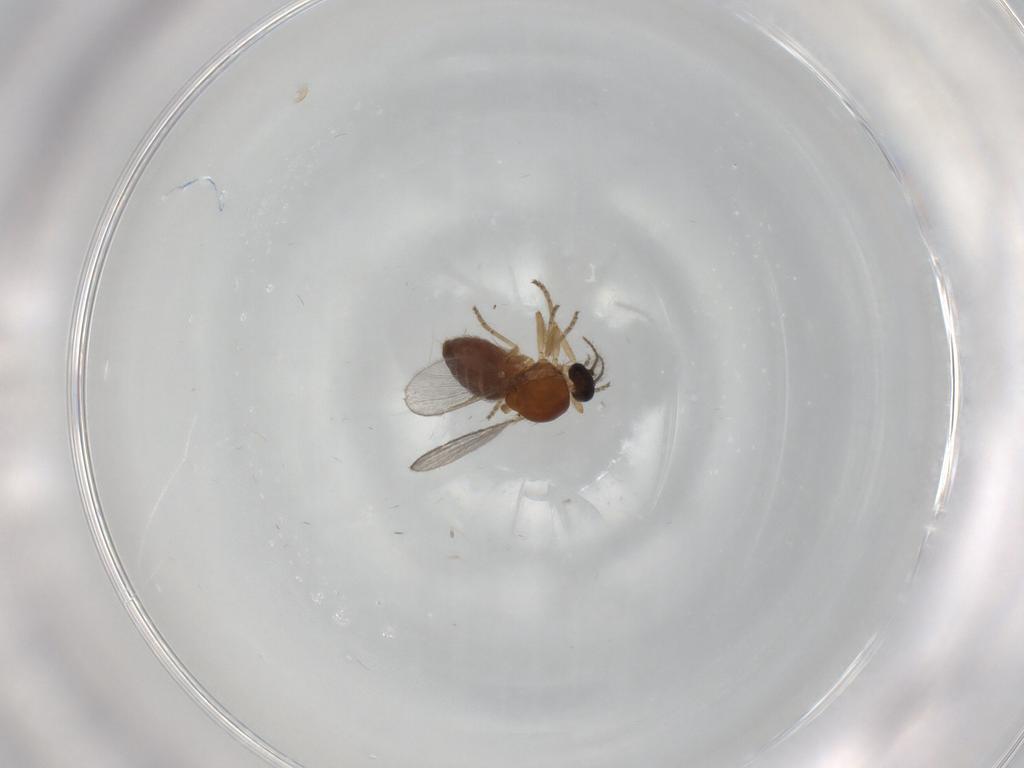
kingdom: Animalia
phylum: Arthropoda
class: Insecta
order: Diptera
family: Ceratopogonidae
